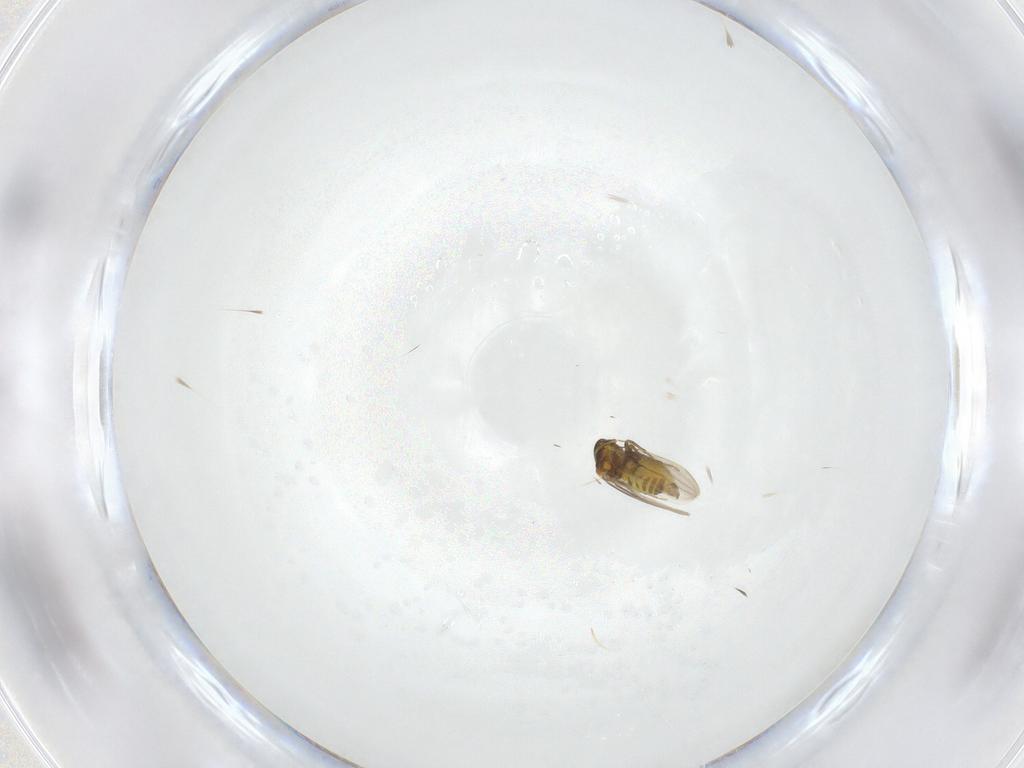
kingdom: Animalia
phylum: Arthropoda
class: Insecta
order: Hemiptera
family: Aleyrodidae
